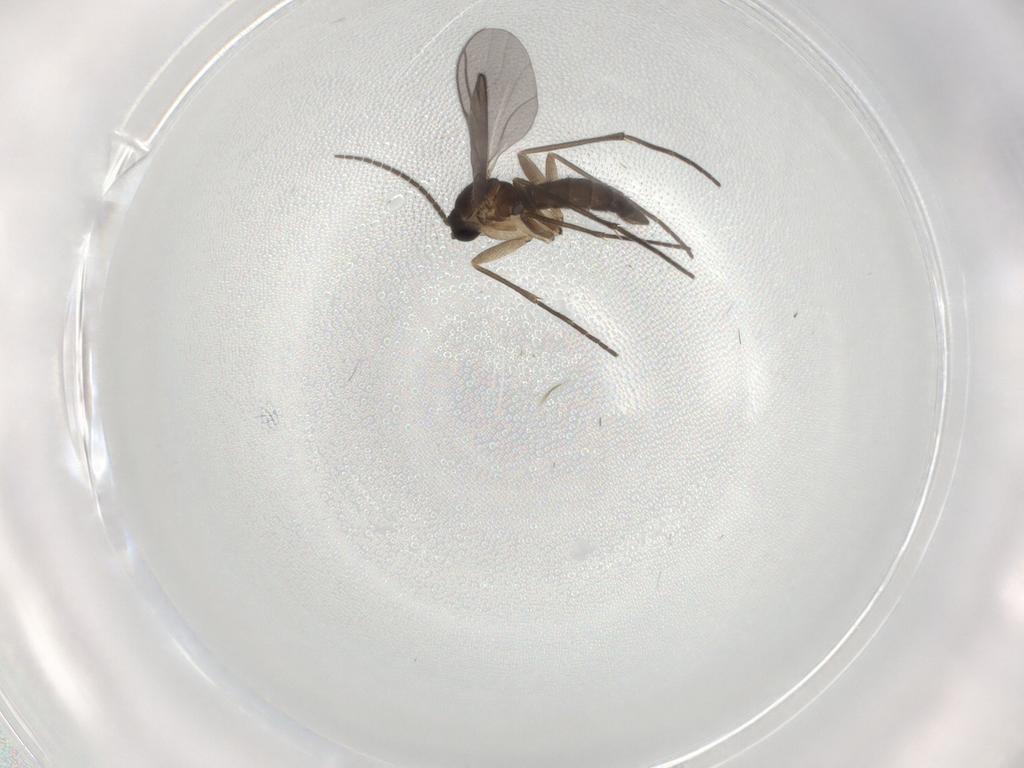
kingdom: Animalia
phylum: Arthropoda
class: Insecta
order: Diptera
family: Sciaridae
